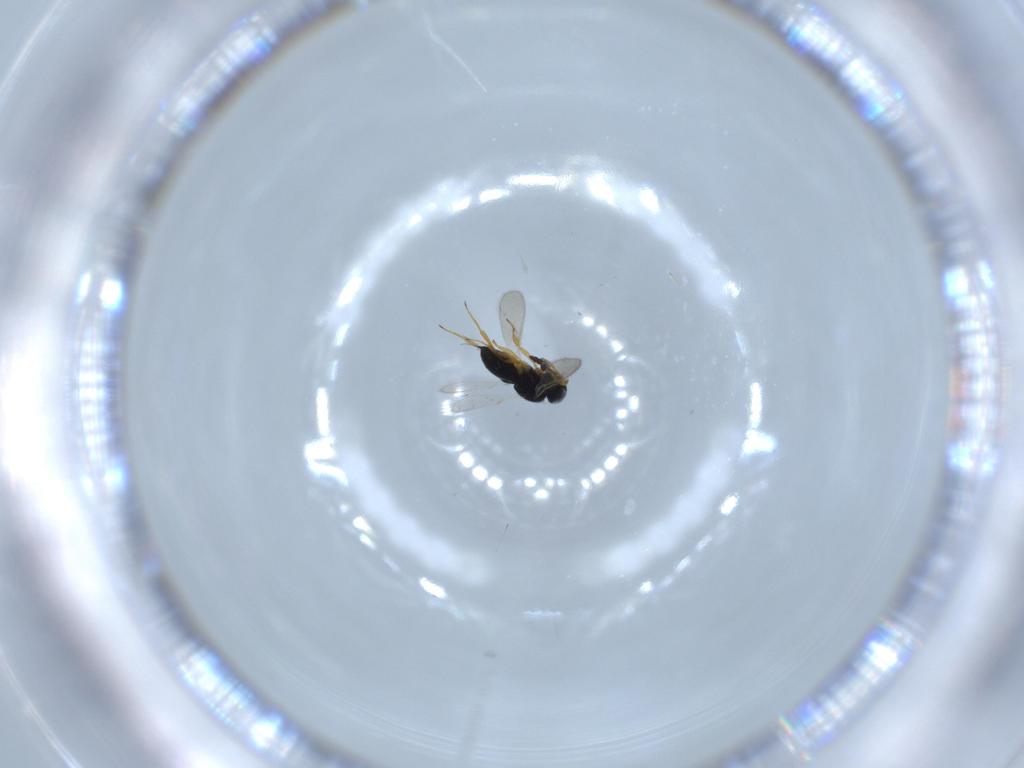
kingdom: Animalia
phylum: Arthropoda
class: Insecta
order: Hymenoptera
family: Scelionidae
